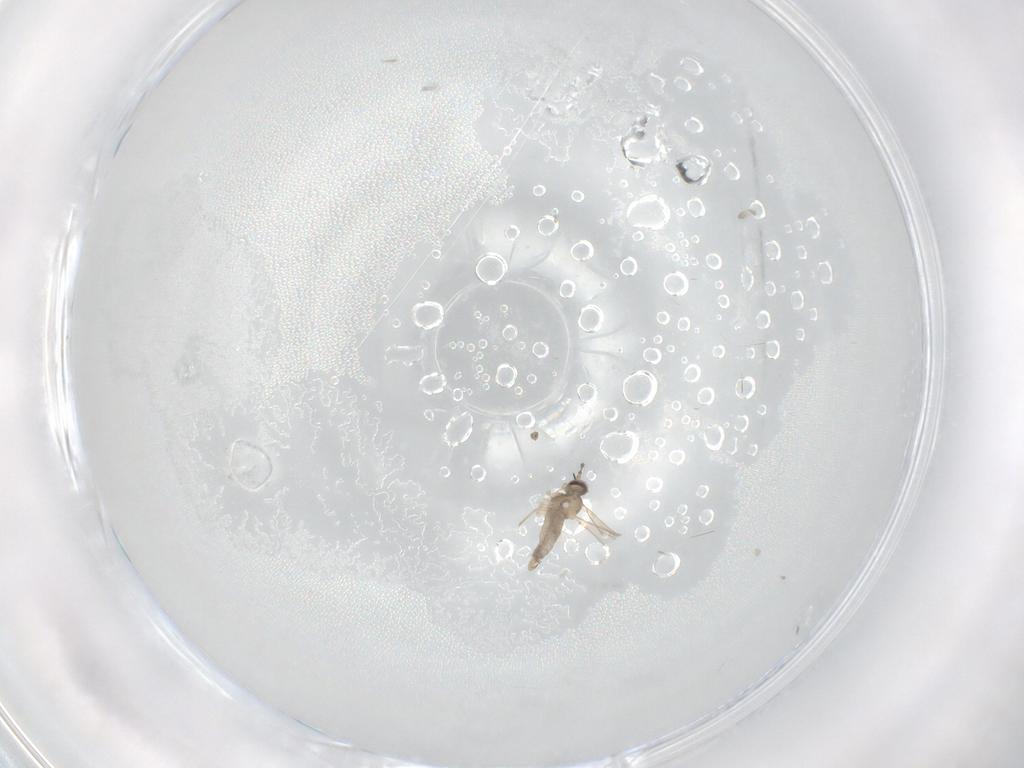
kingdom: Animalia
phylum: Arthropoda
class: Insecta
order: Diptera
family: Cecidomyiidae
